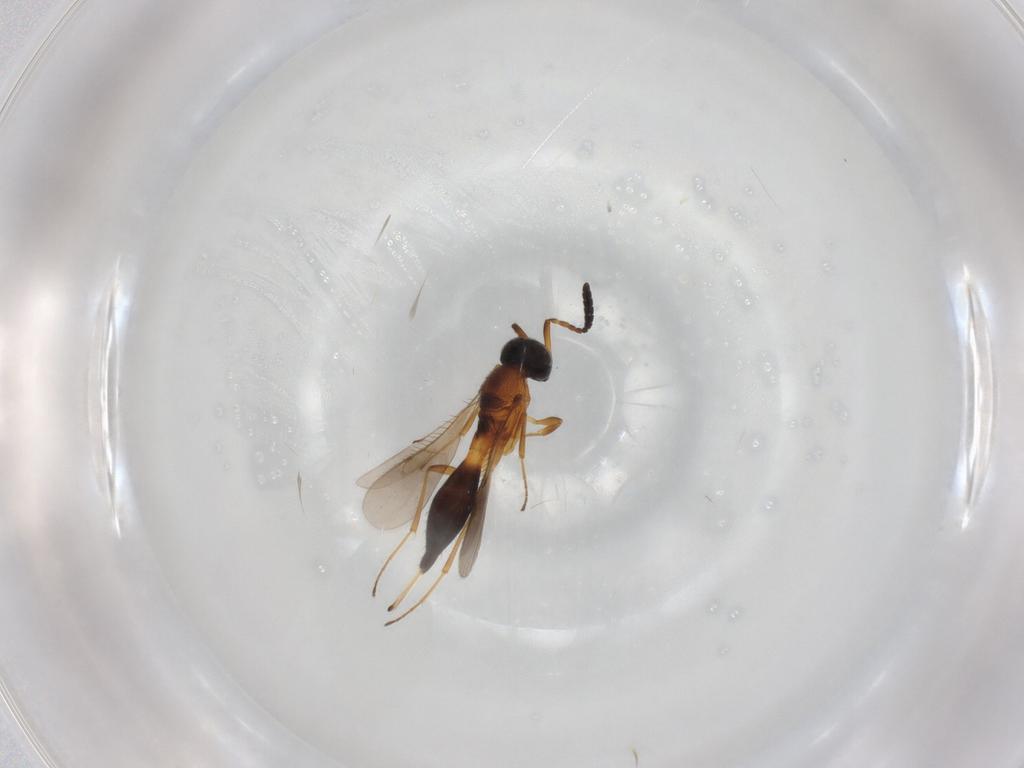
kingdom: Animalia
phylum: Arthropoda
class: Insecta
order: Hymenoptera
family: Scelionidae
